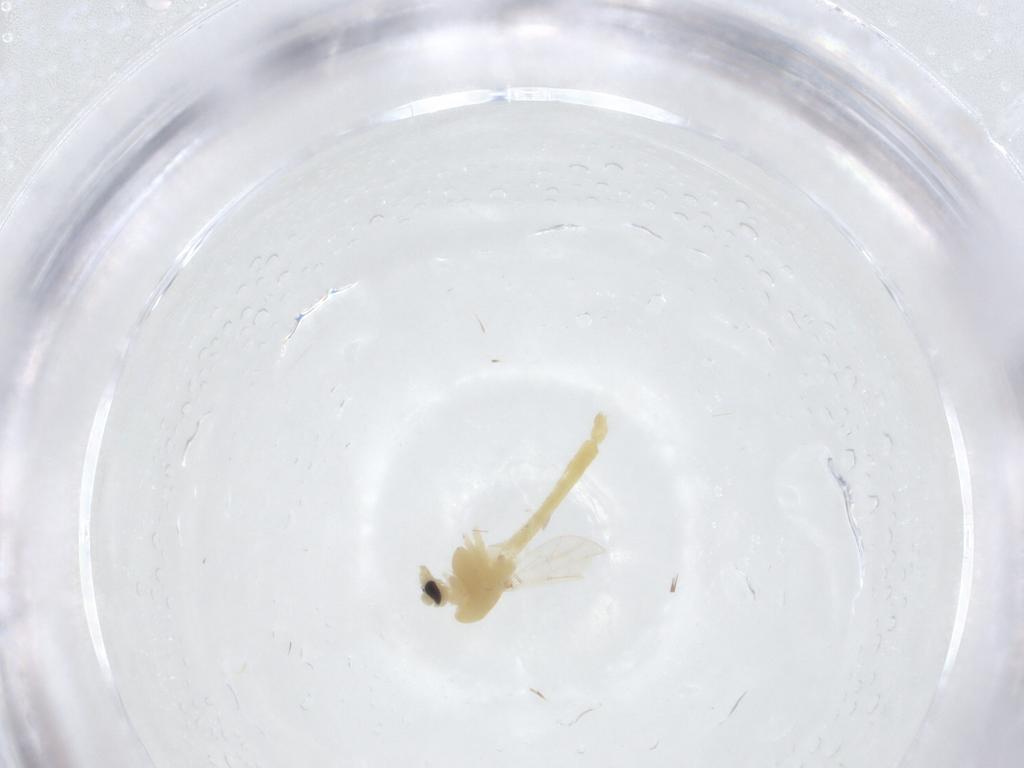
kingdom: Animalia
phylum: Arthropoda
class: Insecta
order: Diptera
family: Chironomidae
